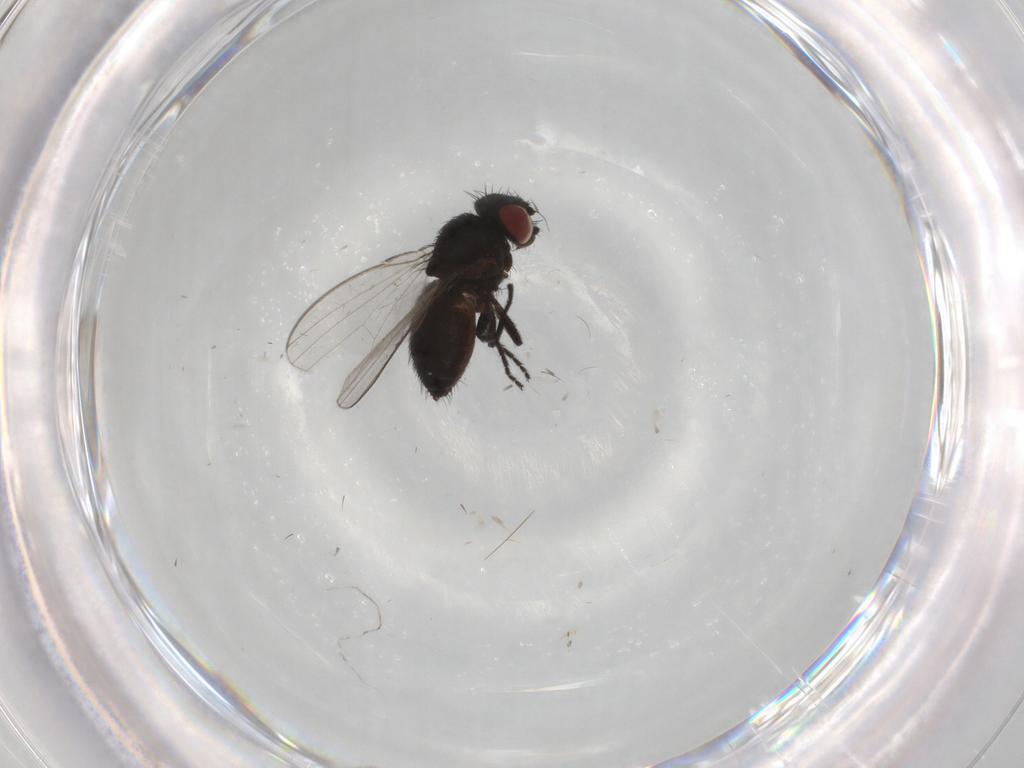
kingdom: Animalia
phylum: Arthropoda
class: Insecta
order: Diptera
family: Milichiidae
